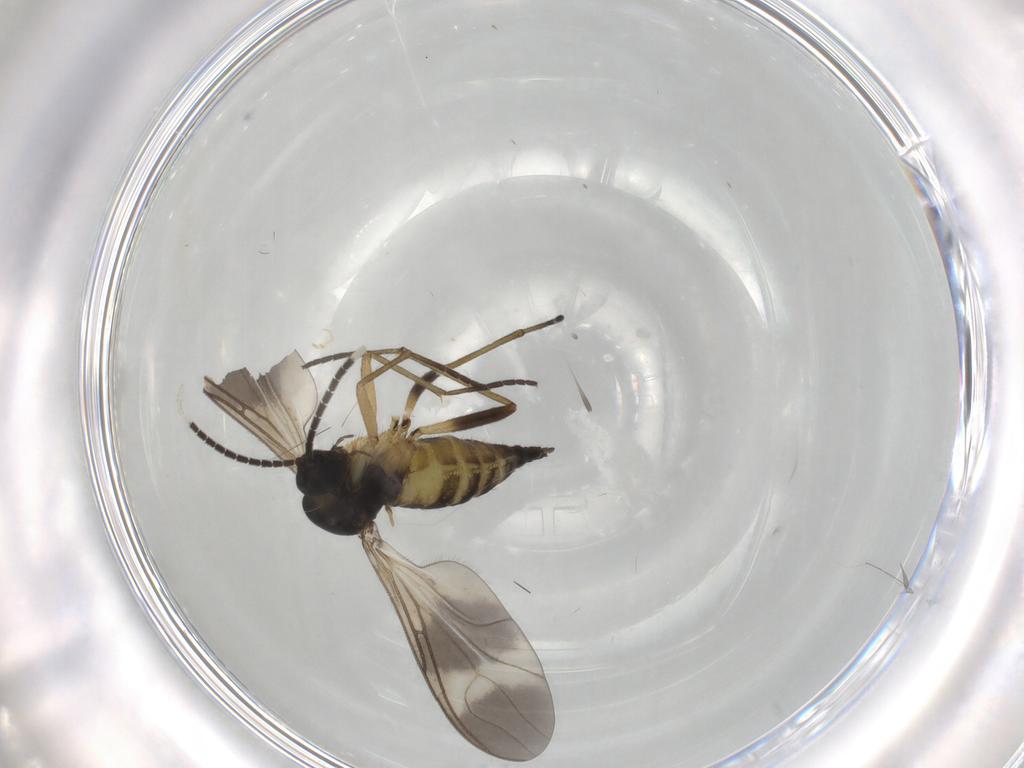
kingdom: Animalia
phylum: Arthropoda
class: Insecta
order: Diptera
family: Sciaridae
